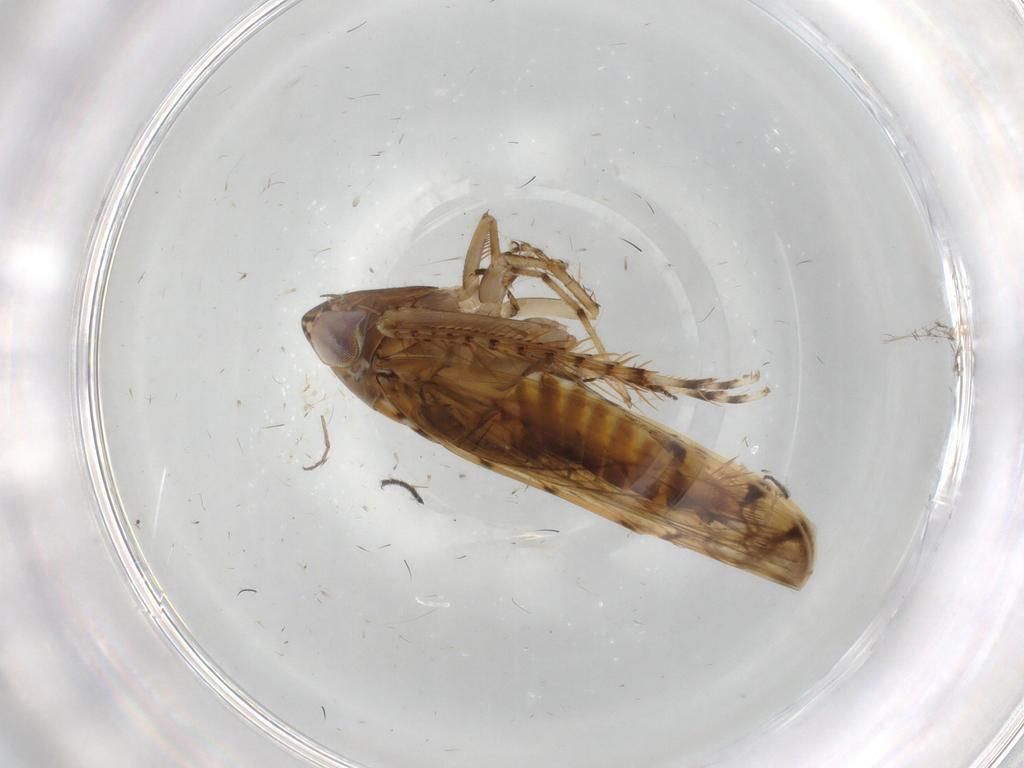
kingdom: Animalia
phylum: Arthropoda
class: Insecta
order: Hemiptera
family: Cicadellidae
